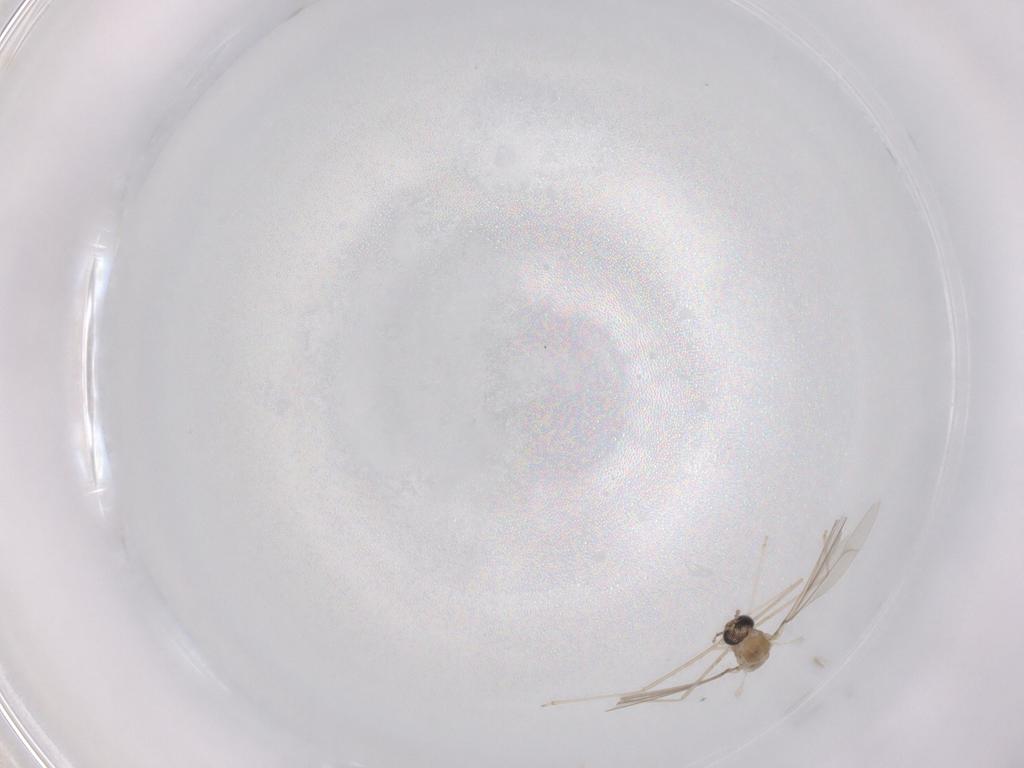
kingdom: Animalia
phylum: Arthropoda
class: Insecta
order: Diptera
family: Cecidomyiidae
